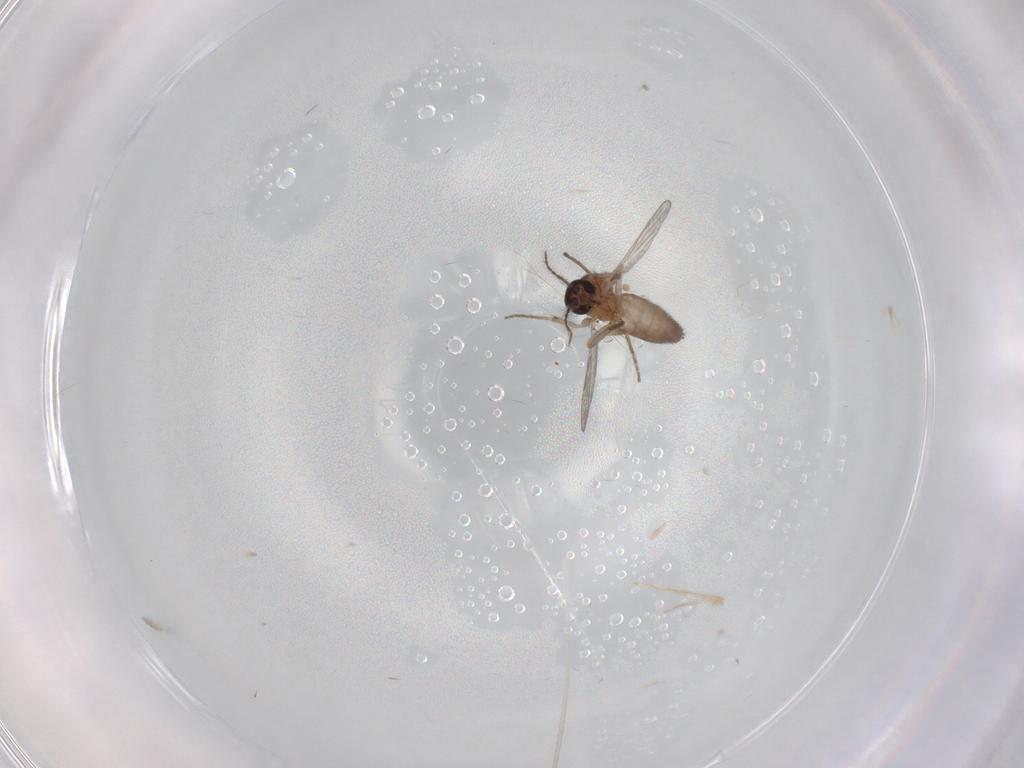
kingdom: Animalia
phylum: Arthropoda
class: Insecta
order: Diptera
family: Ceratopogonidae
